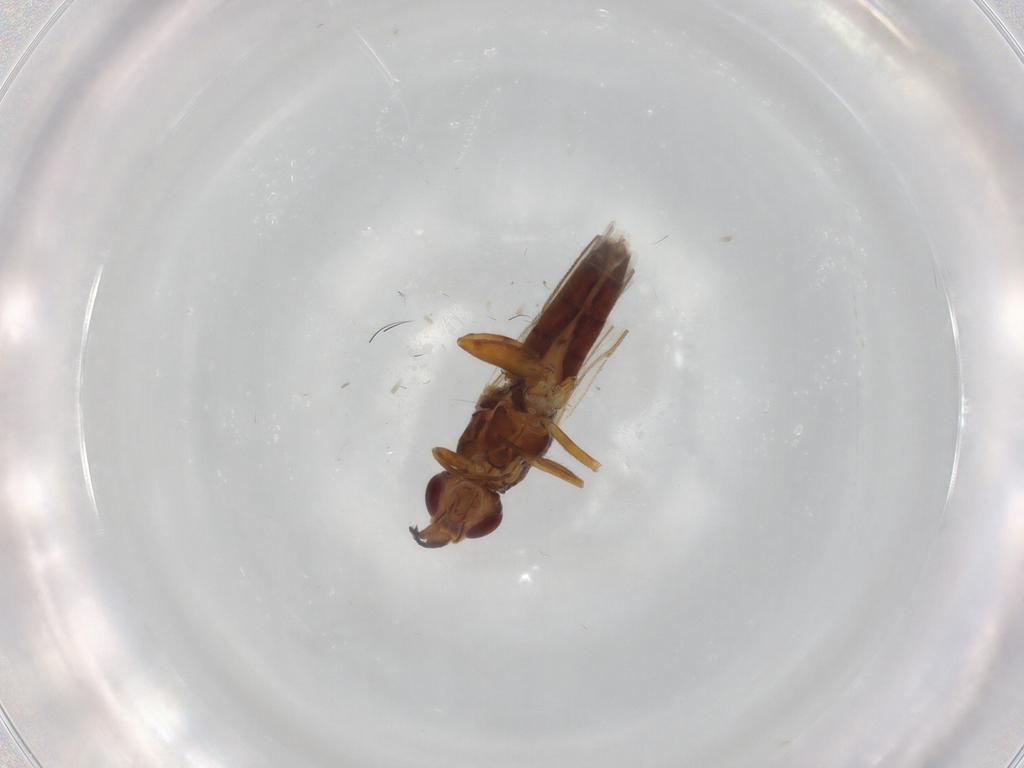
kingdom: Animalia
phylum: Arthropoda
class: Insecta
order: Diptera
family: Chloropidae
